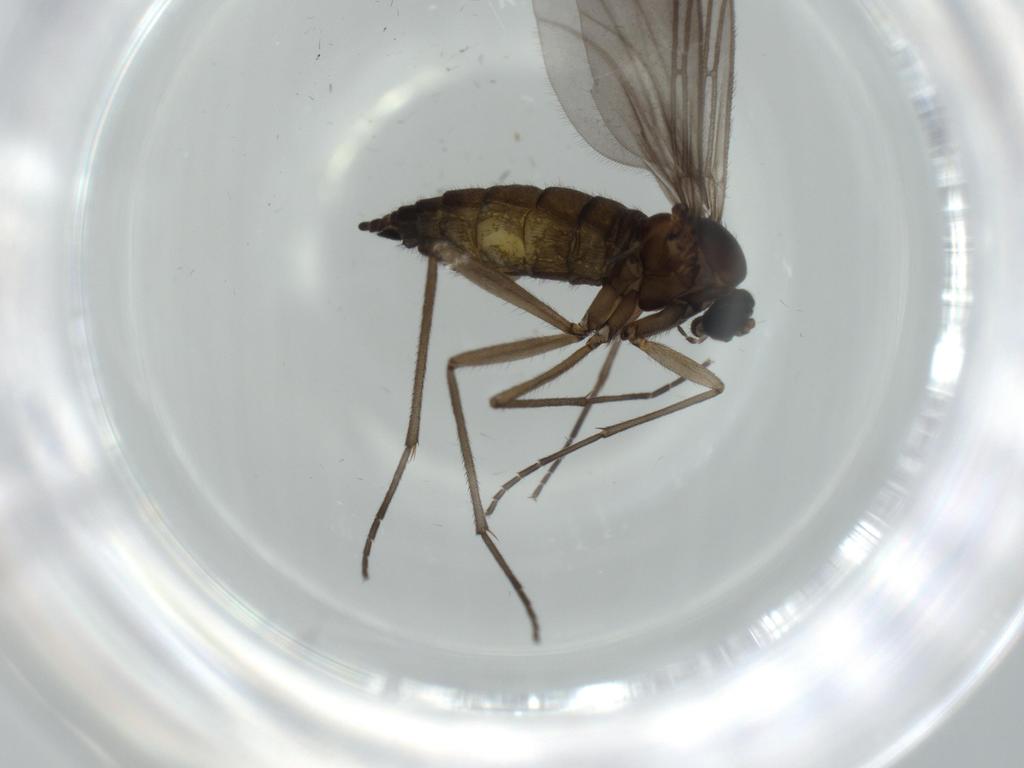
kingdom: Animalia
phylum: Arthropoda
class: Insecta
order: Diptera
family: Sciaridae
